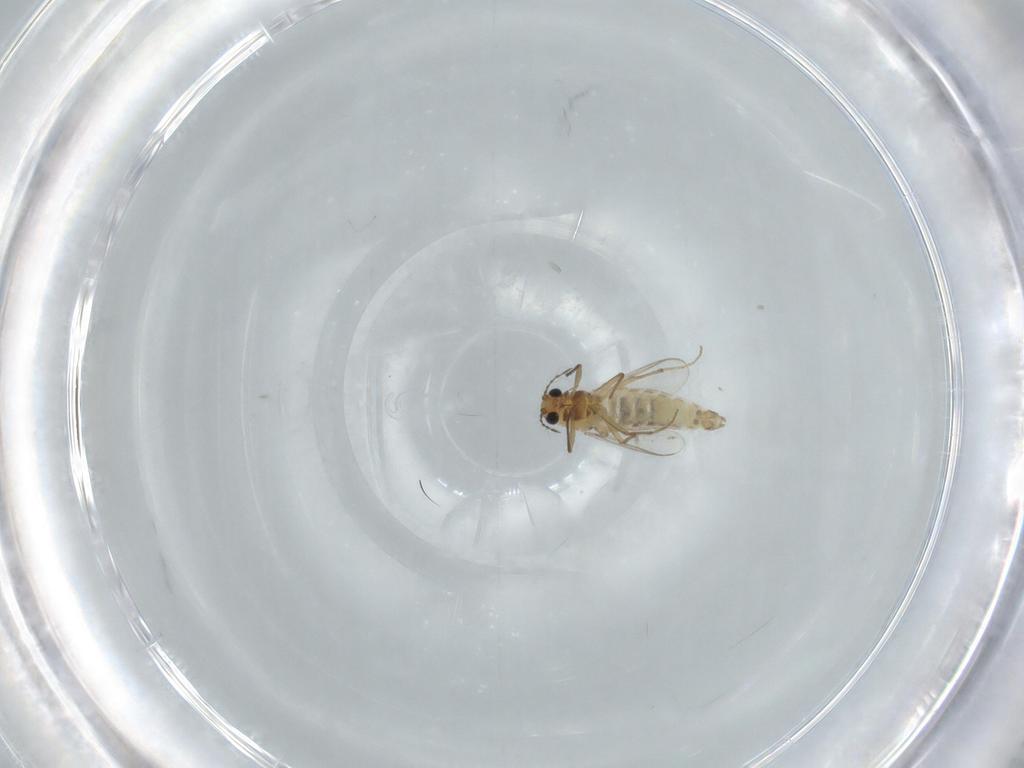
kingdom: Animalia
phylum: Arthropoda
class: Insecta
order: Diptera
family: Chironomidae
